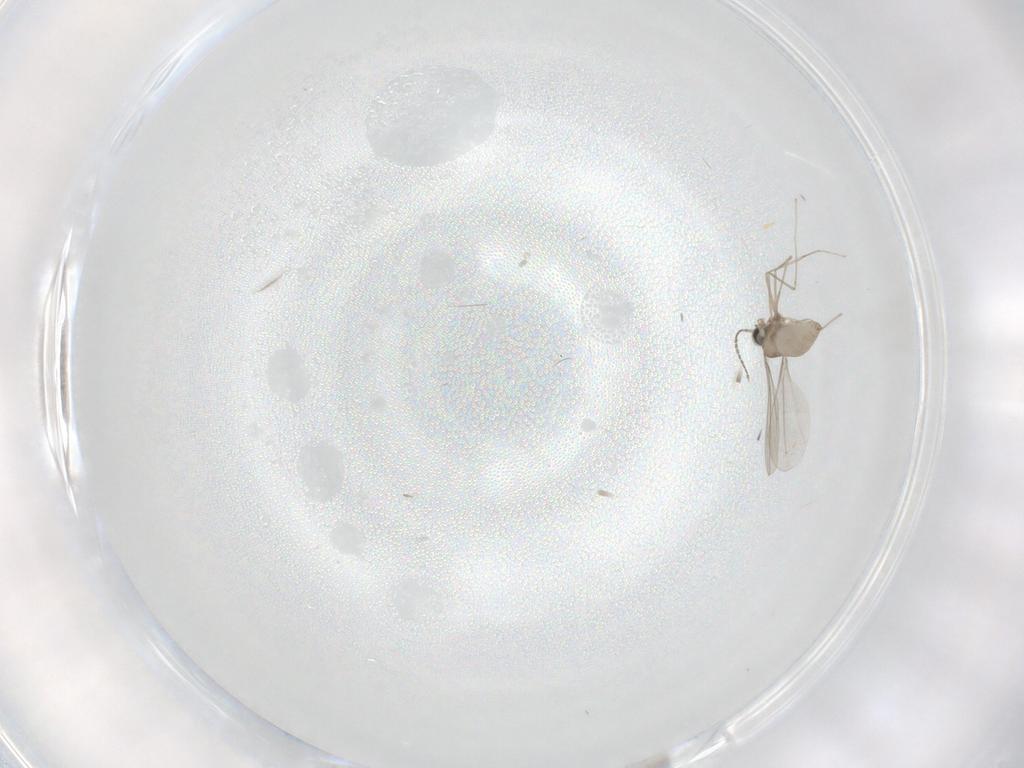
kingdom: Animalia
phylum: Arthropoda
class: Insecta
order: Diptera
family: Cecidomyiidae
